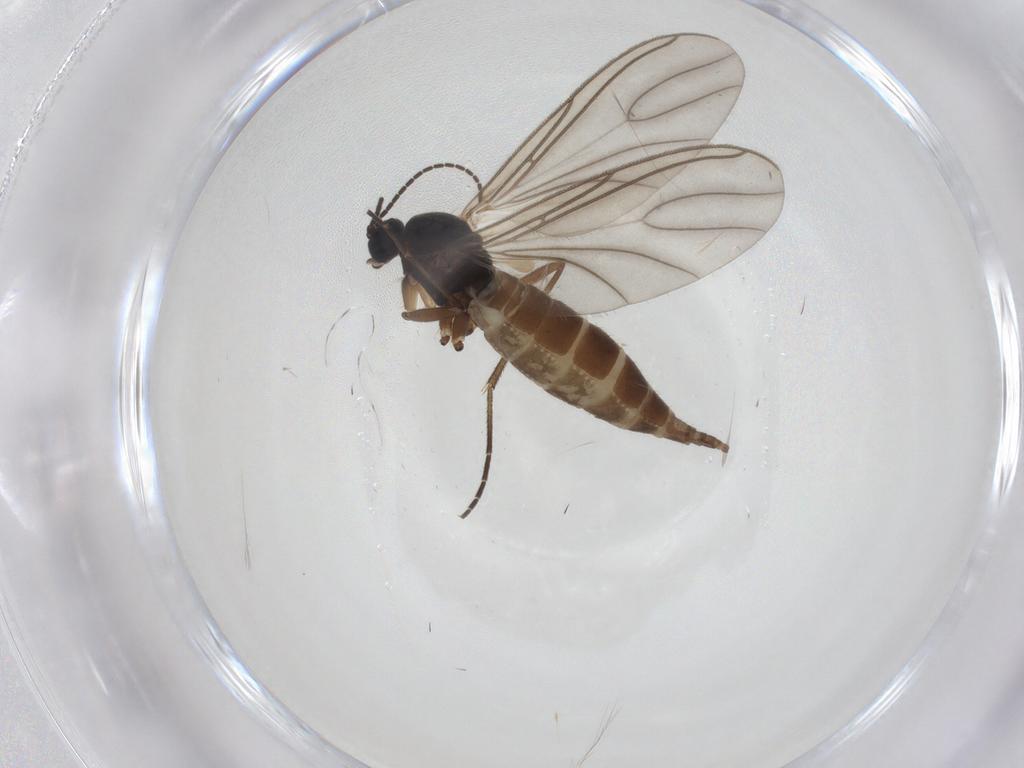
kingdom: Animalia
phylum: Arthropoda
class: Insecta
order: Diptera
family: Sciaridae
